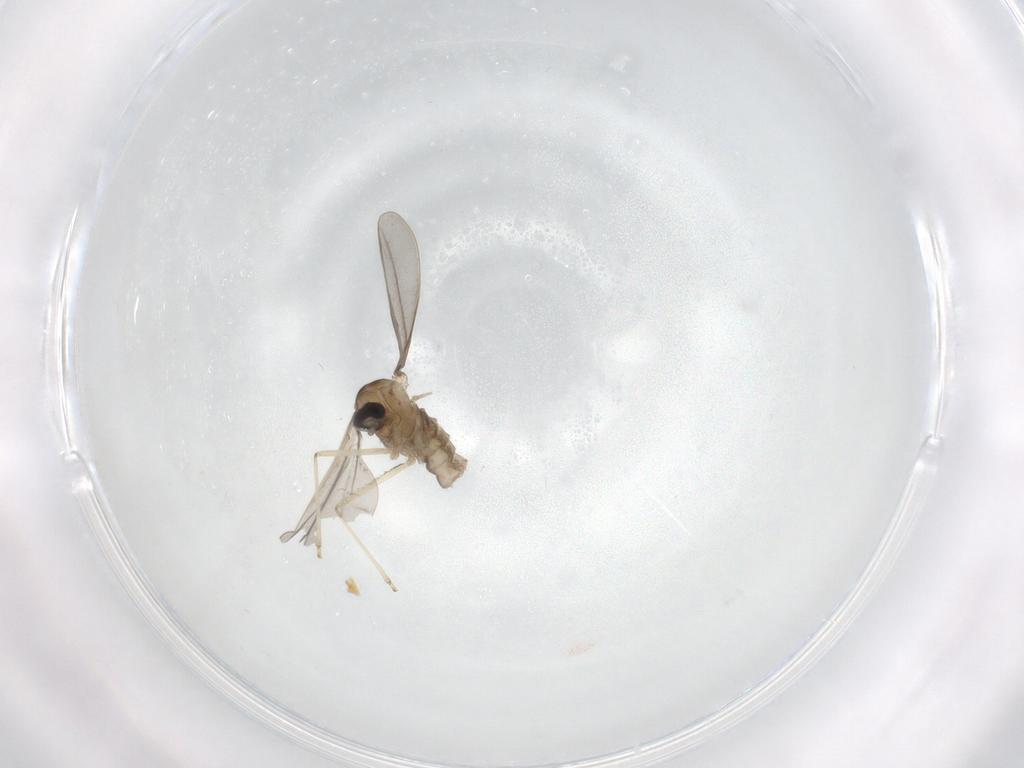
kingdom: Animalia
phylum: Arthropoda
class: Insecta
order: Diptera
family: Cecidomyiidae
